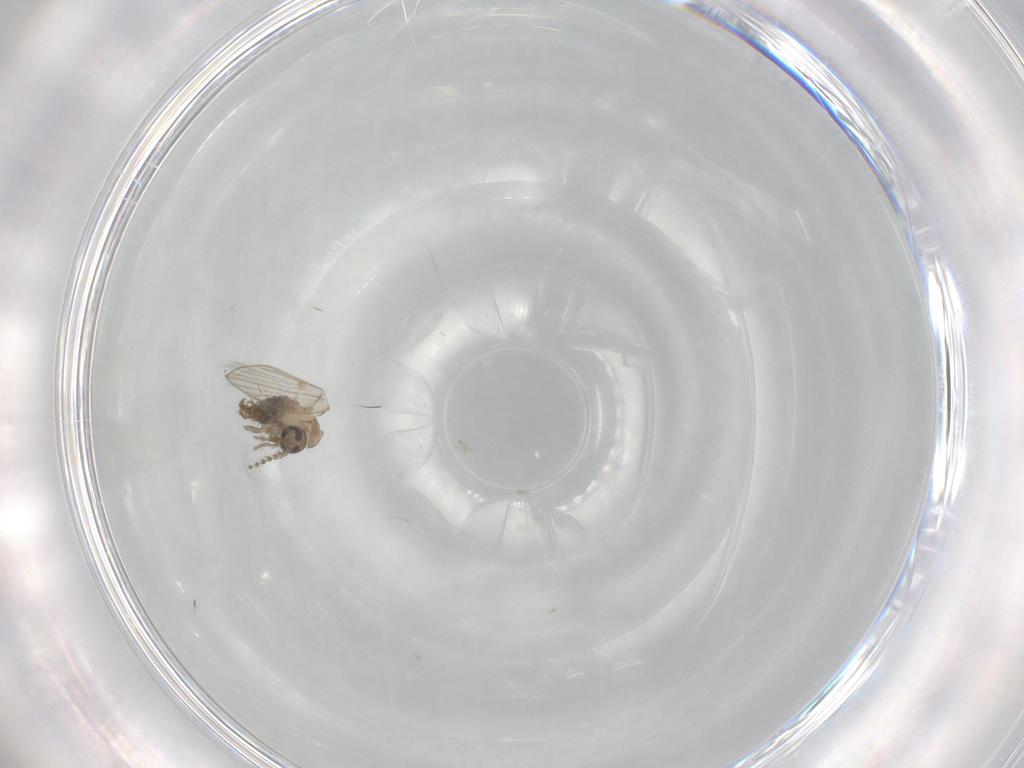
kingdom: Animalia
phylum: Arthropoda
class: Insecta
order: Diptera
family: Psychodidae
